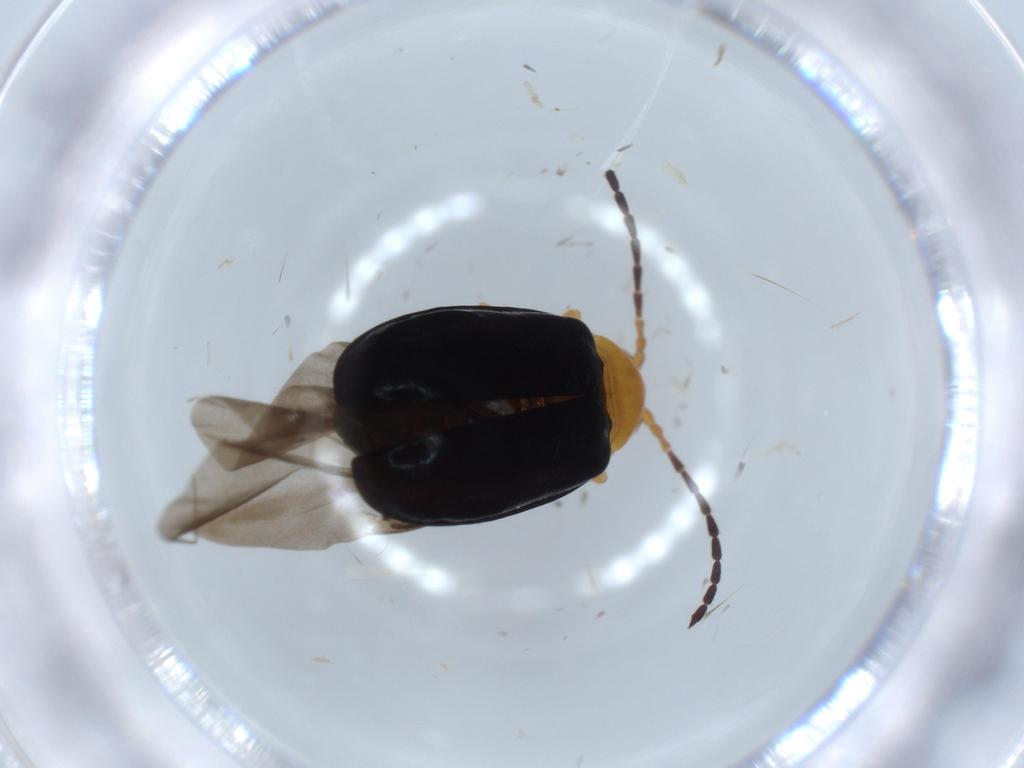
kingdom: Animalia
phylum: Arthropoda
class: Insecta
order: Coleoptera
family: Chrysomelidae
